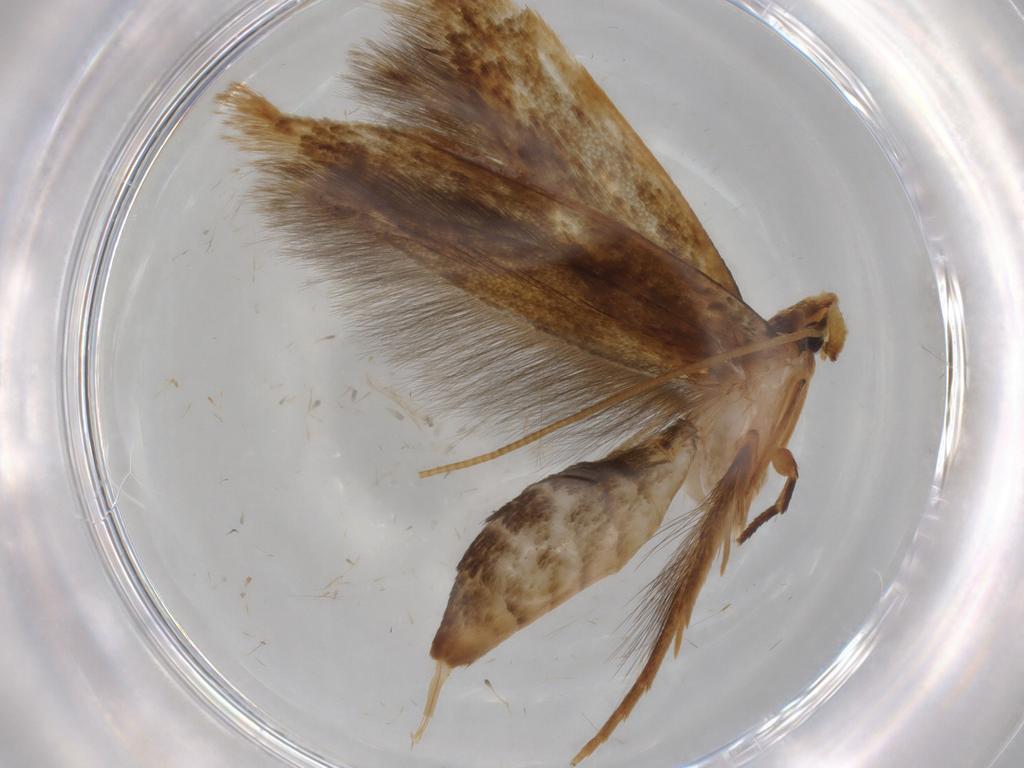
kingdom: Animalia
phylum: Arthropoda
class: Insecta
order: Lepidoptera
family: Tineidae
